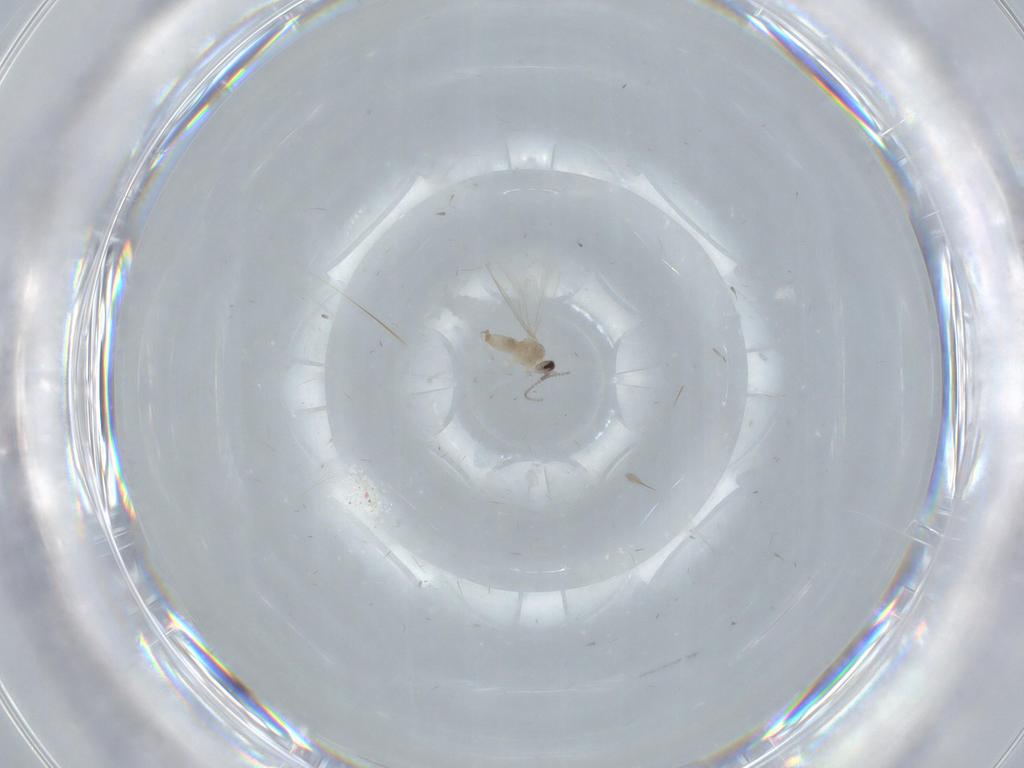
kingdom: Animalia
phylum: Arthropoda
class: Insecta
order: Diptera
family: Cecidomyiidae
